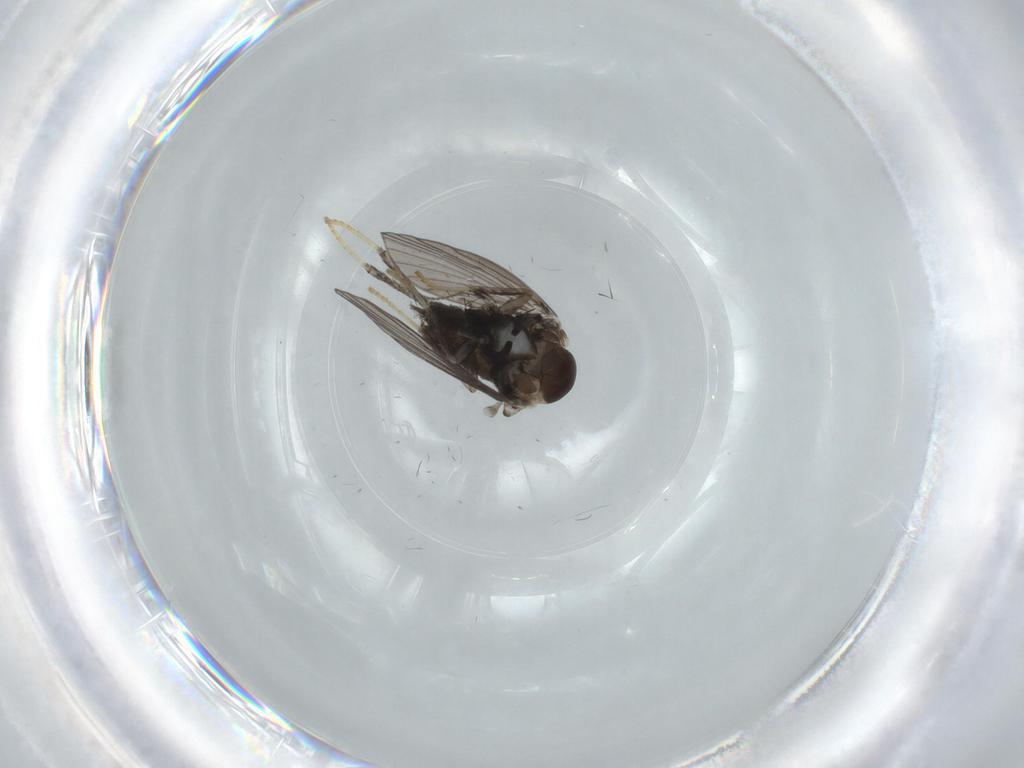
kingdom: Animalia
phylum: Arthropoda
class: Insecta
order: Diptera
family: Psychodidae
